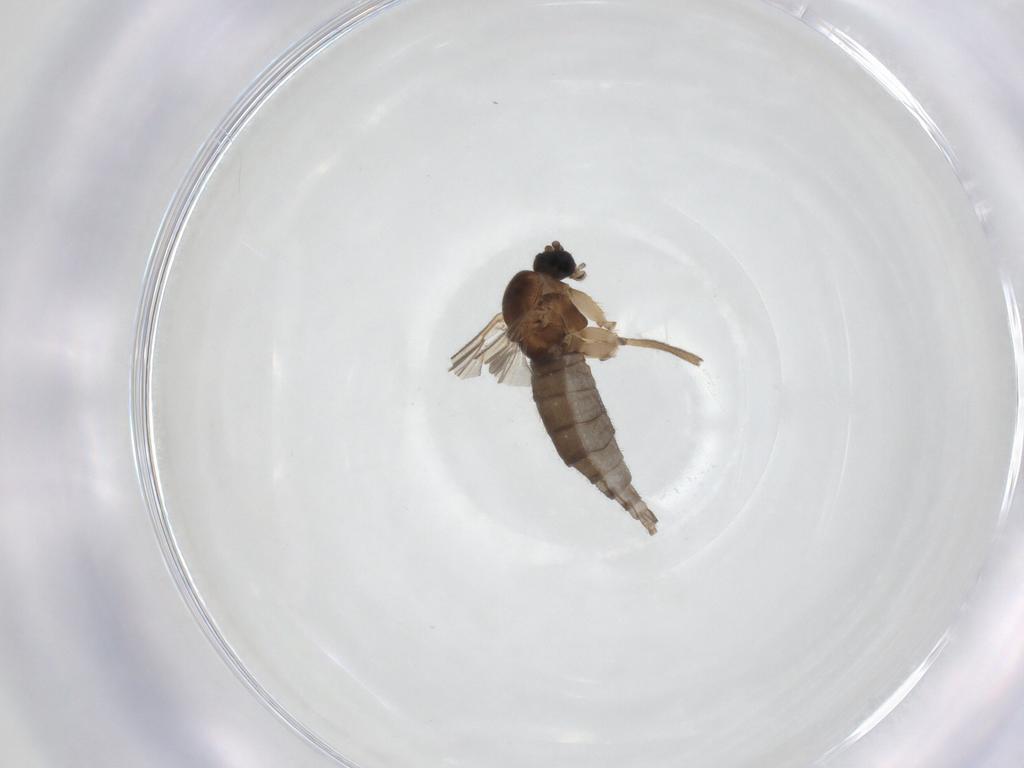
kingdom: Animalia
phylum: Arthropoda
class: Insecta
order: Diptera
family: Sciaridae
